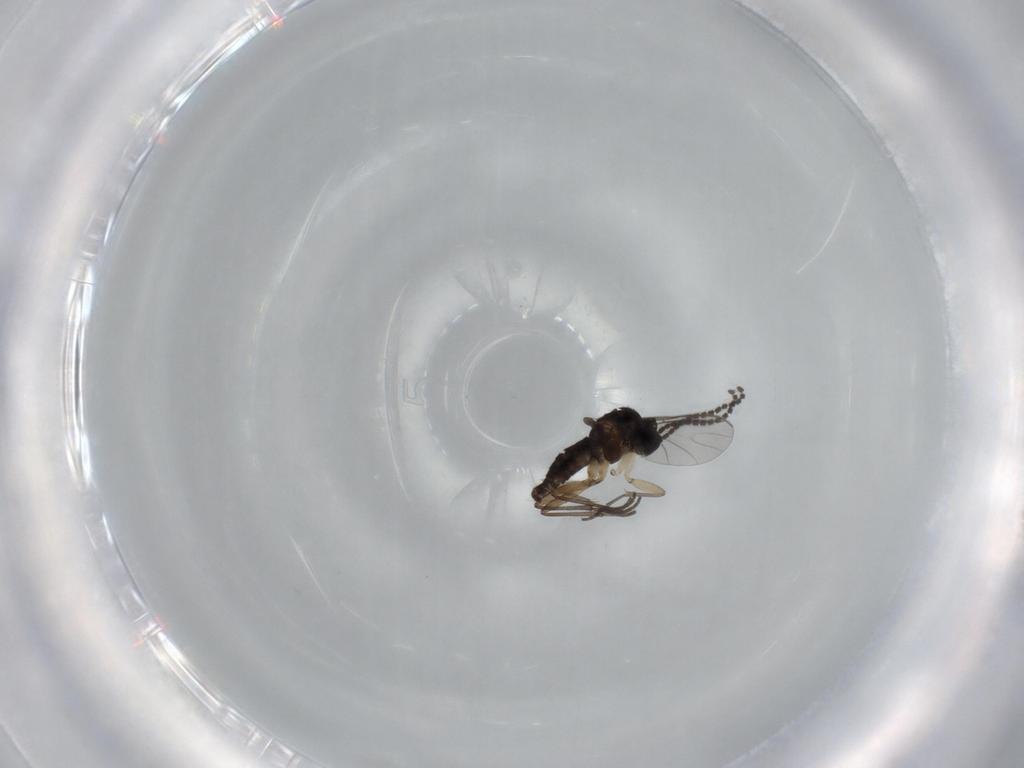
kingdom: Animalia
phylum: Arthropoda
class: Insecta
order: Diptera
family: Sciaridae
